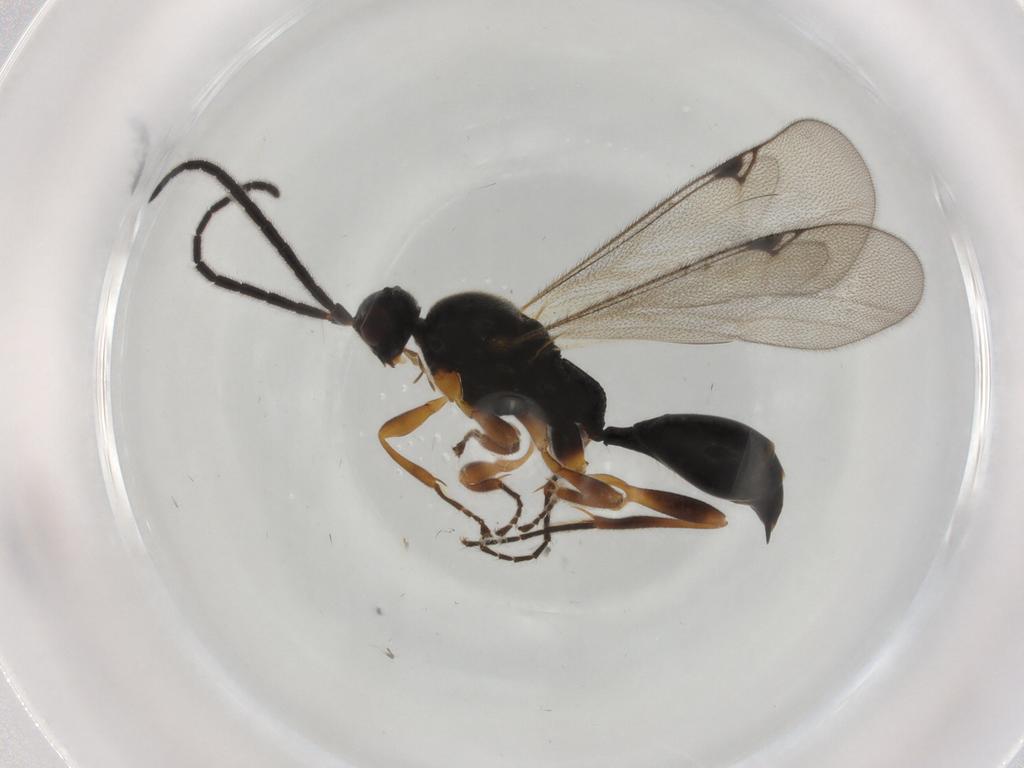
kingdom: Animalia
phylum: Arthropoda
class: Insecta
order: Hymenoptera
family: Proctotrupidae
